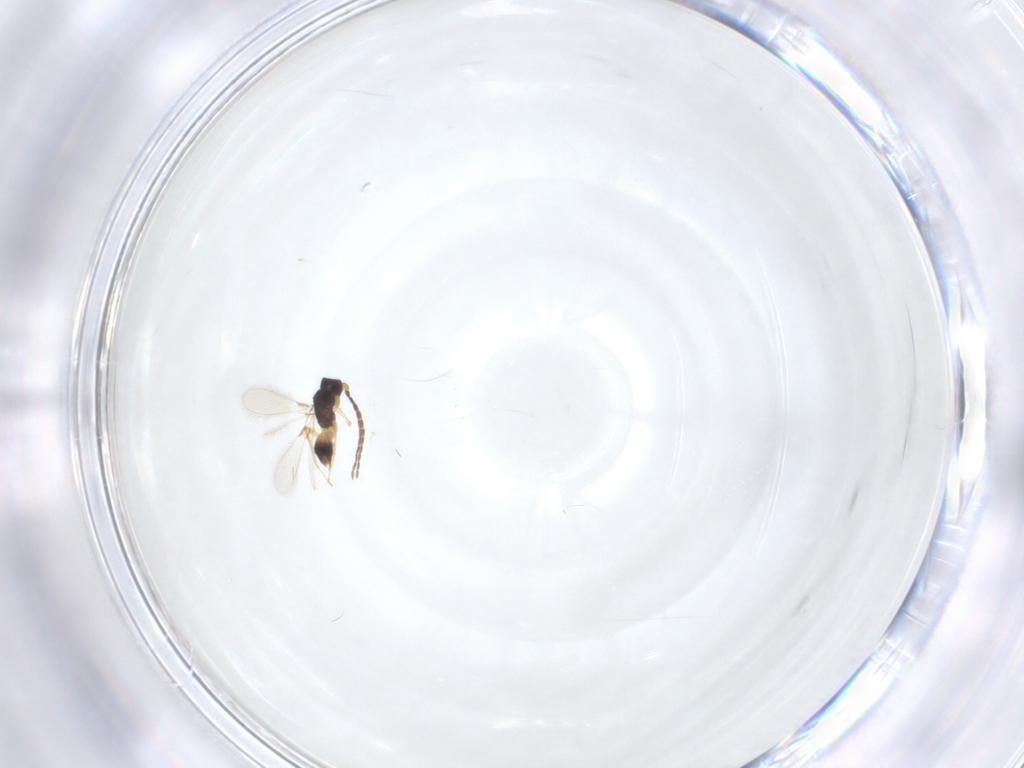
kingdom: Animalia
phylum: Arthropoda
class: Insecta
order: Hymenoptera
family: Mymaridae
